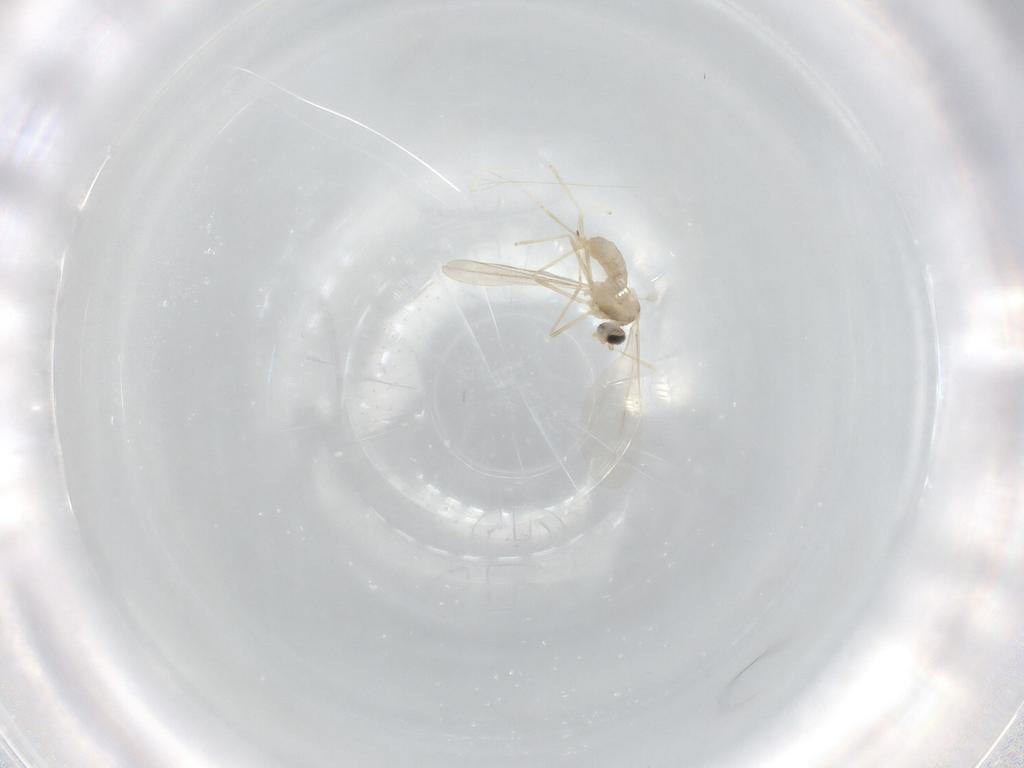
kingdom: Animalia
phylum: Arthropoda
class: Insecta
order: Diptera
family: Cecidomyiidae
